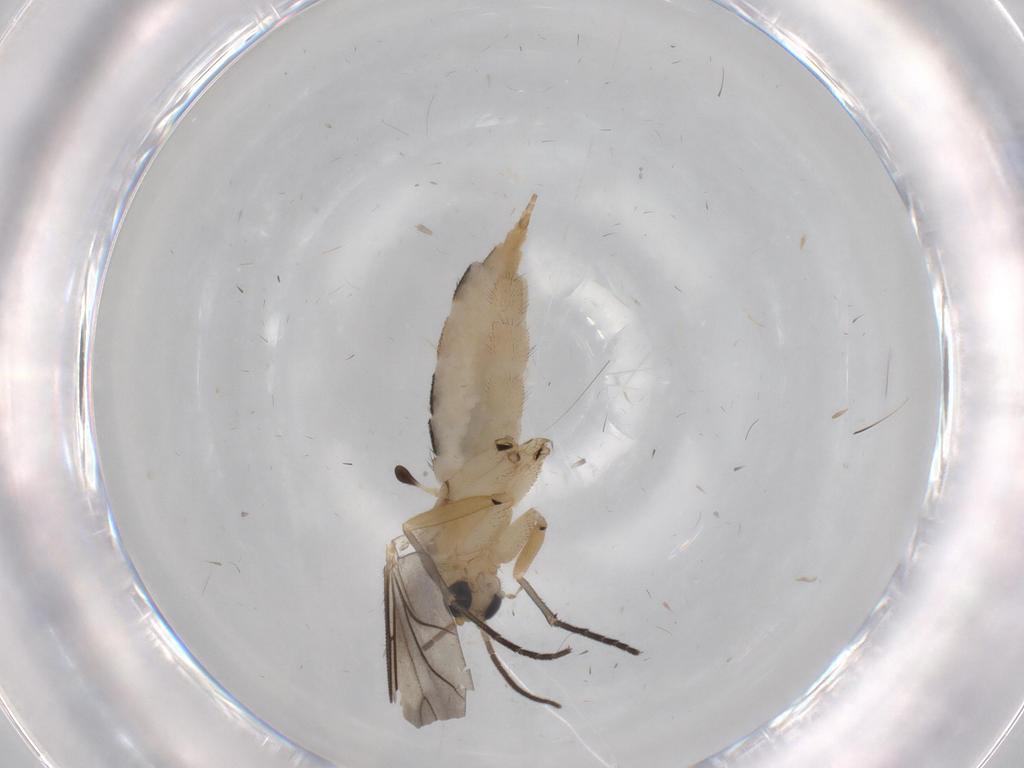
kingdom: Animalia
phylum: Arthropoda
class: Insecta
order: Diptera
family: Sciaridae
